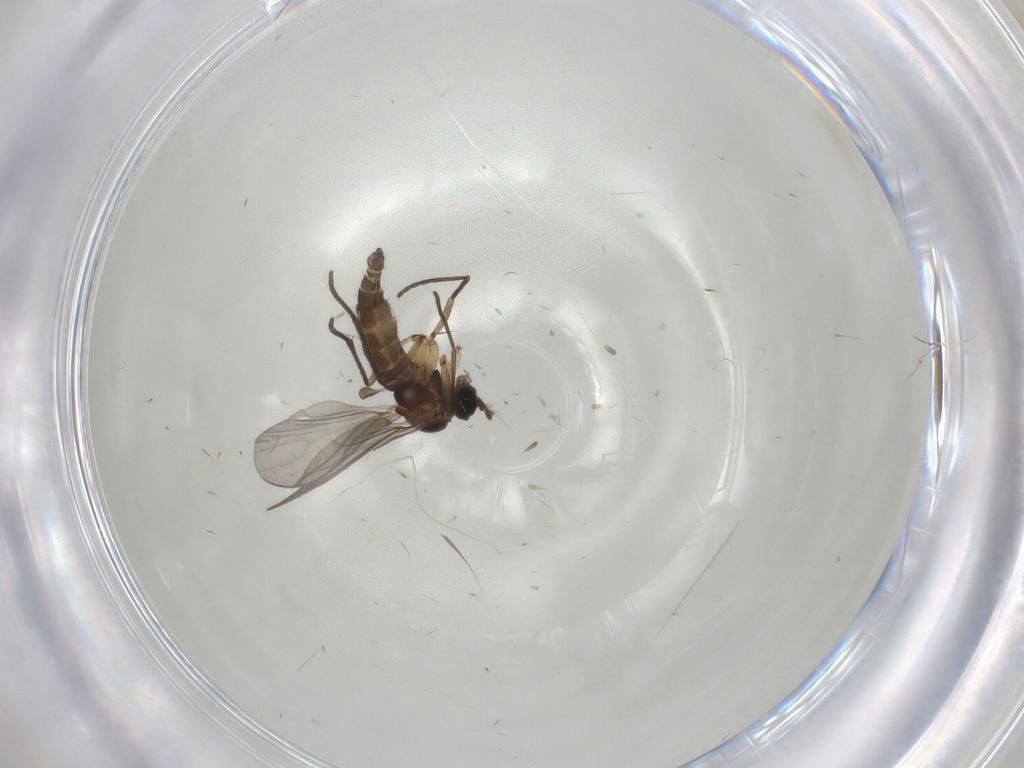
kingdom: Animalia
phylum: Arthropoda
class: Insecta
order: Diptera
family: Sciaridae
